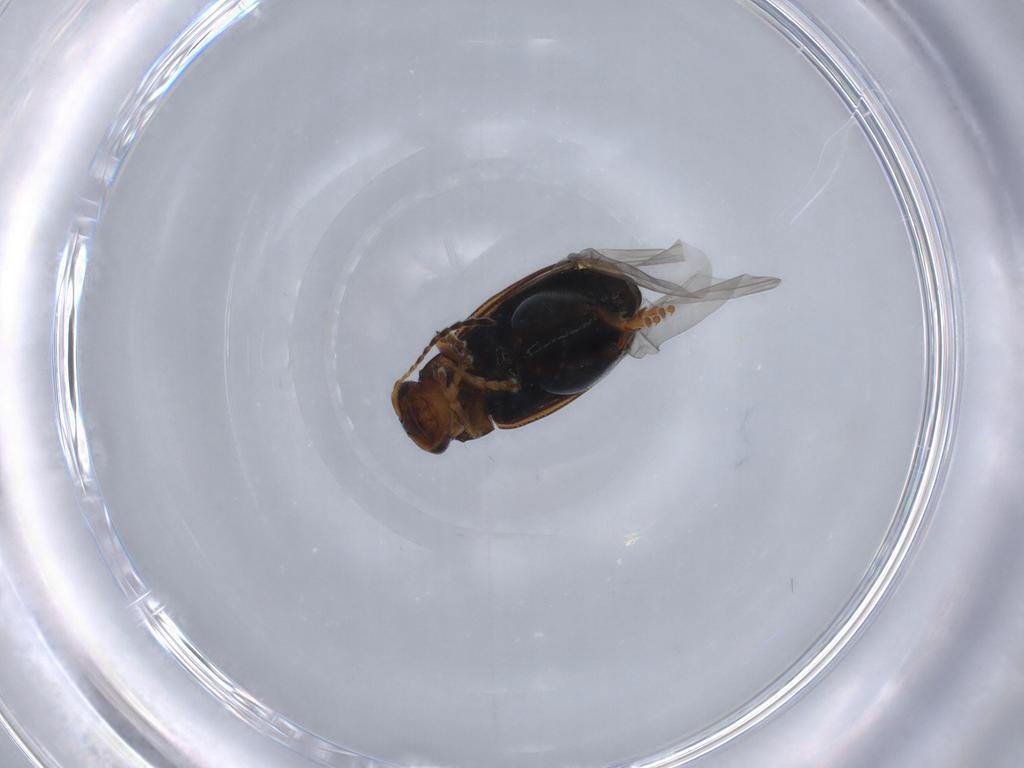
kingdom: Animalia
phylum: Arthropoda
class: Insecta
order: Coleoptera
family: Chrysomelidae
